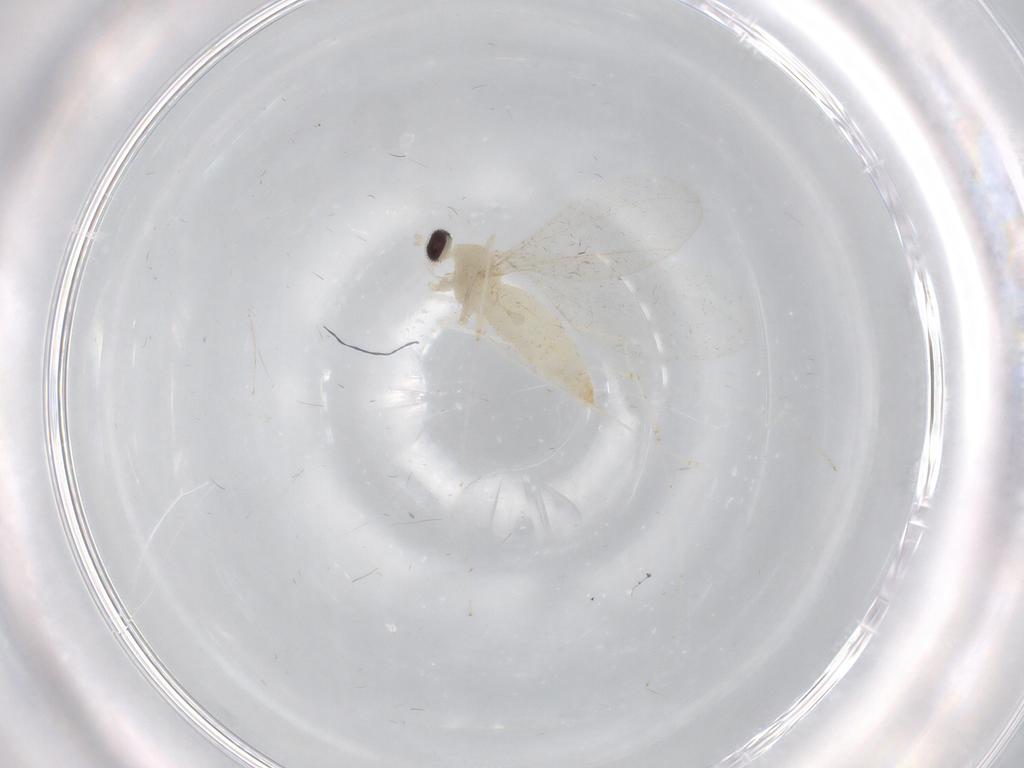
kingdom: Animalia
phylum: Arthropoda
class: Insecta
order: Diptera
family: Cecidomyiidae
